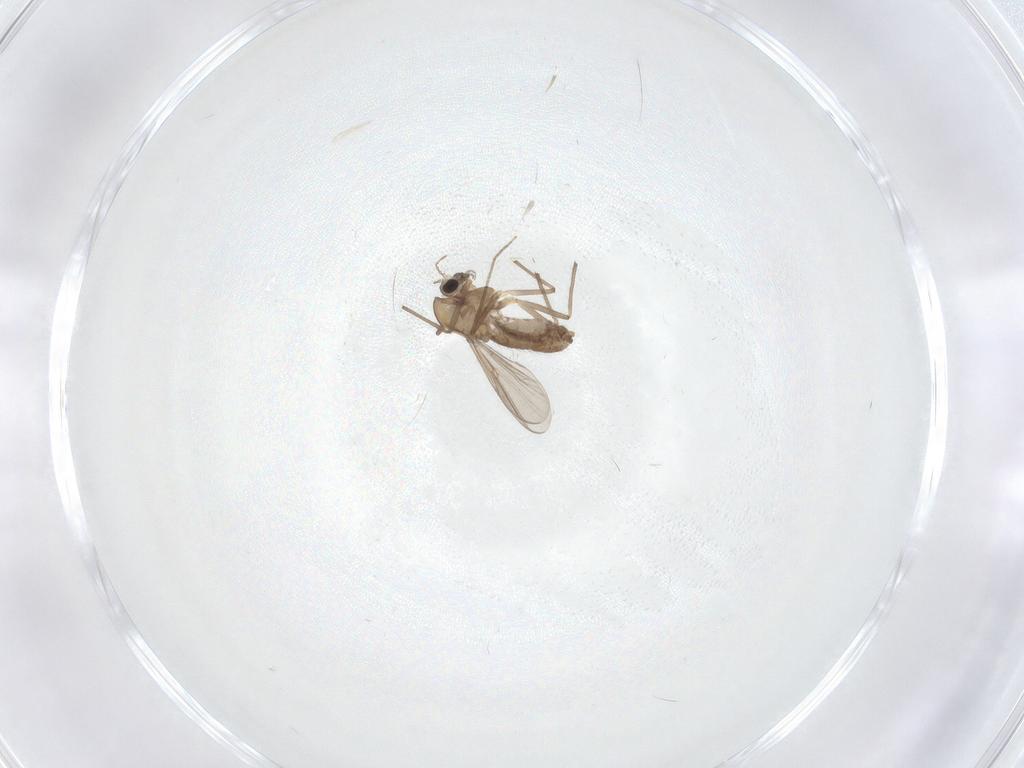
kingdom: Animalia
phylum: Arthropoda
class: Insecta
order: Diptera
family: Chironomidae
